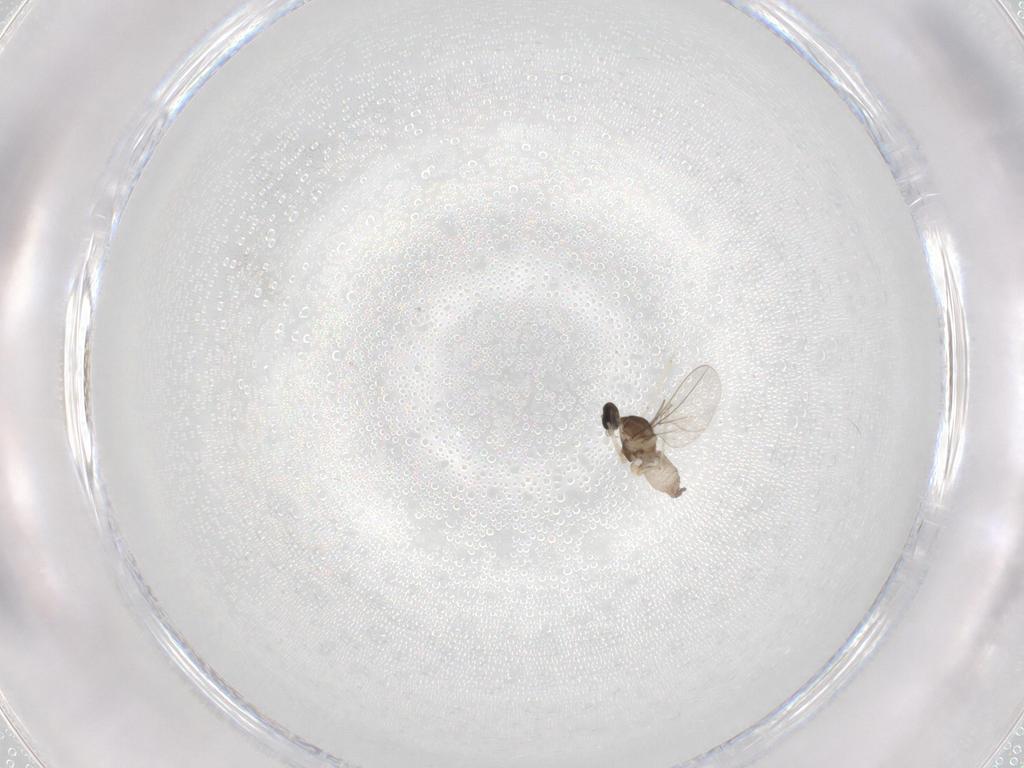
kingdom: Animalia
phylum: Arthropoda
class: Insecta
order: Diptera
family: Cecidomyiidae
